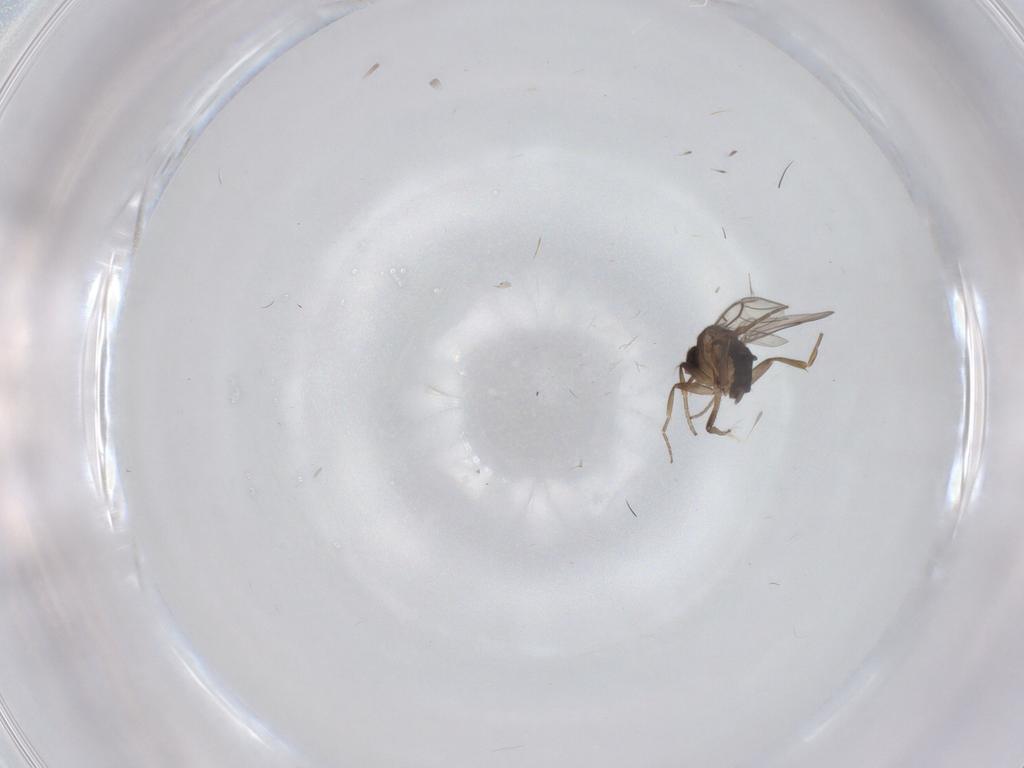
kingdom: Animalia
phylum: Arthropoda
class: Insecta
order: Diptera
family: Phoridae
